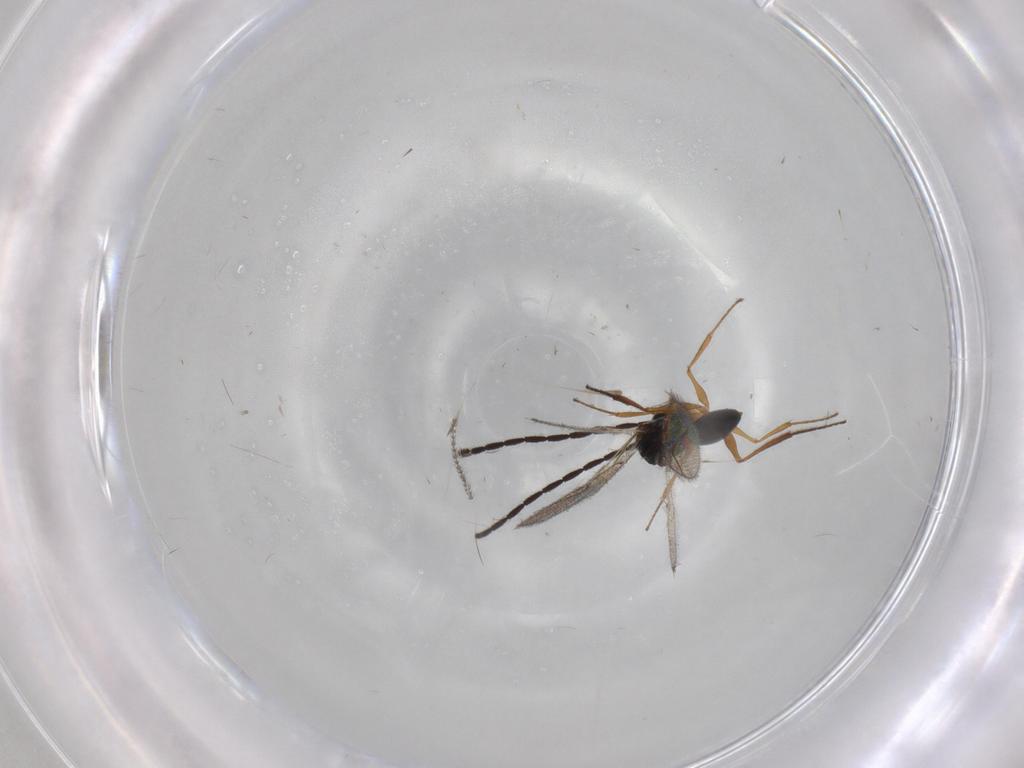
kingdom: Animalia
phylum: Arthropoda
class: Insecta
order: Hymenoptera
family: Figitidae
